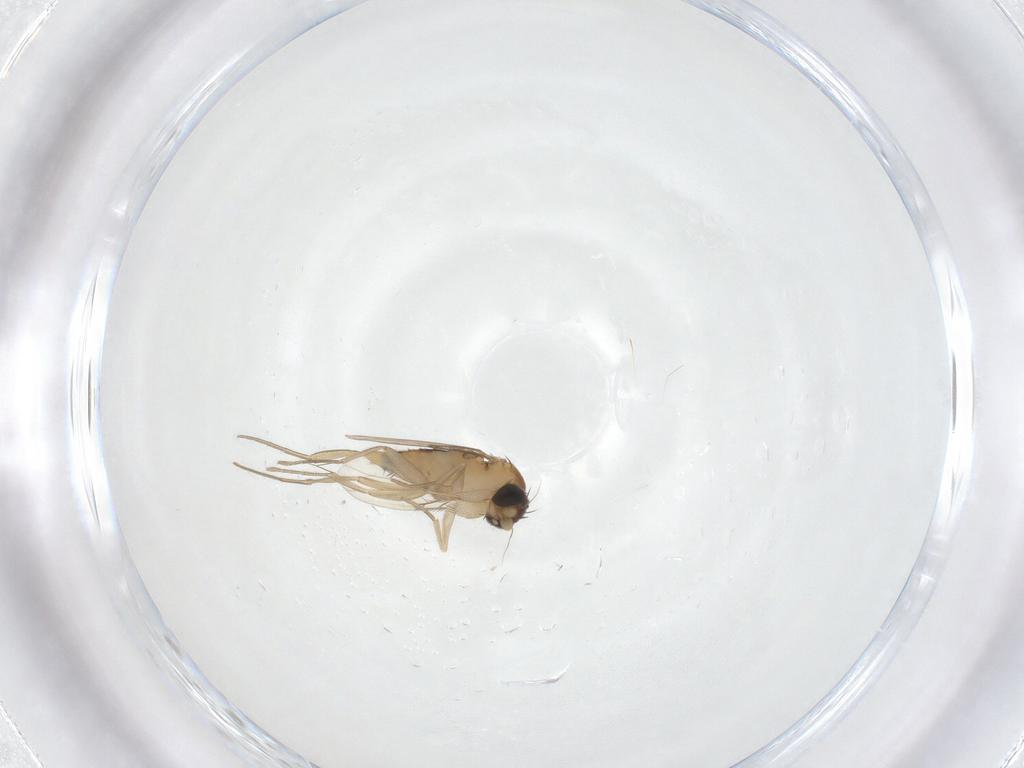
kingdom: Animalia
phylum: Arthropoda
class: Insecta
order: Diptera
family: Phoridae
